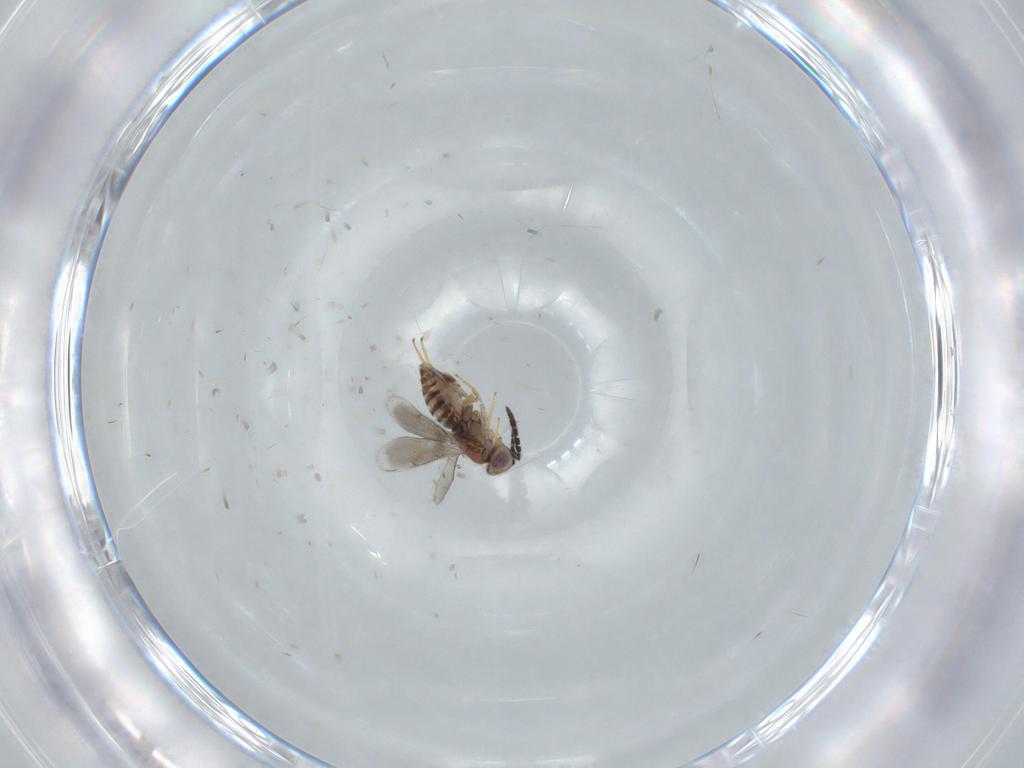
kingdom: Animalia
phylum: Arthropoda
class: Insecta
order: Hymenoptera
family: Aphelinidae
